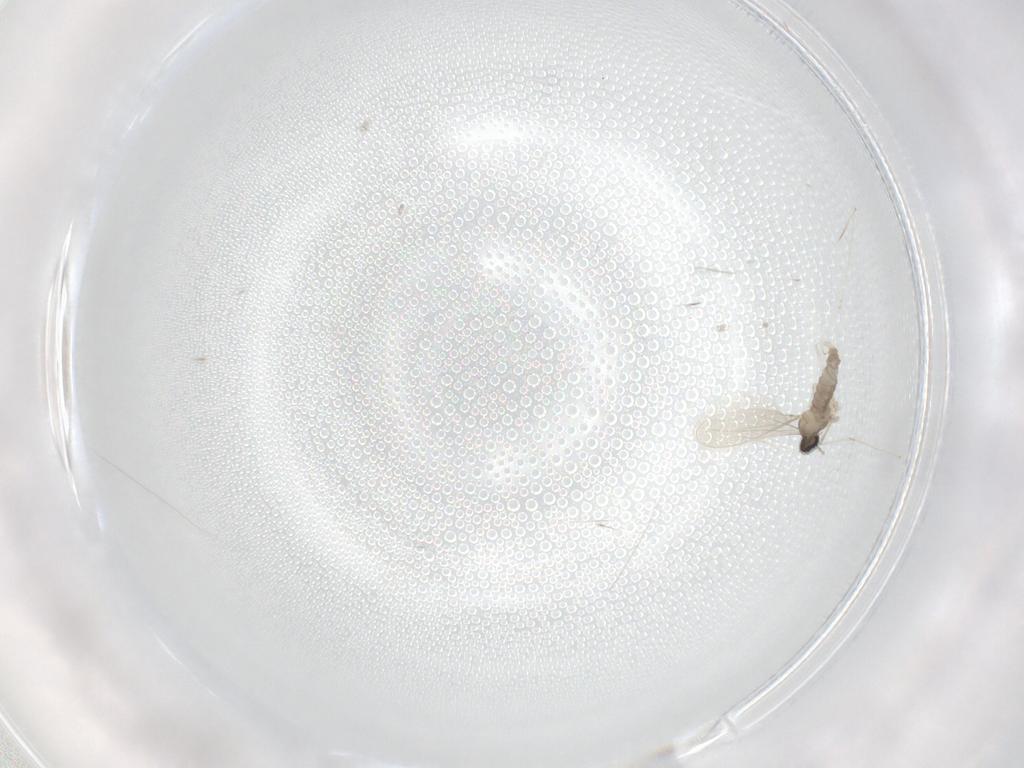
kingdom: Animalia
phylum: Arthropoda
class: Insecta
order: Diptera
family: Cecidomyiidae
